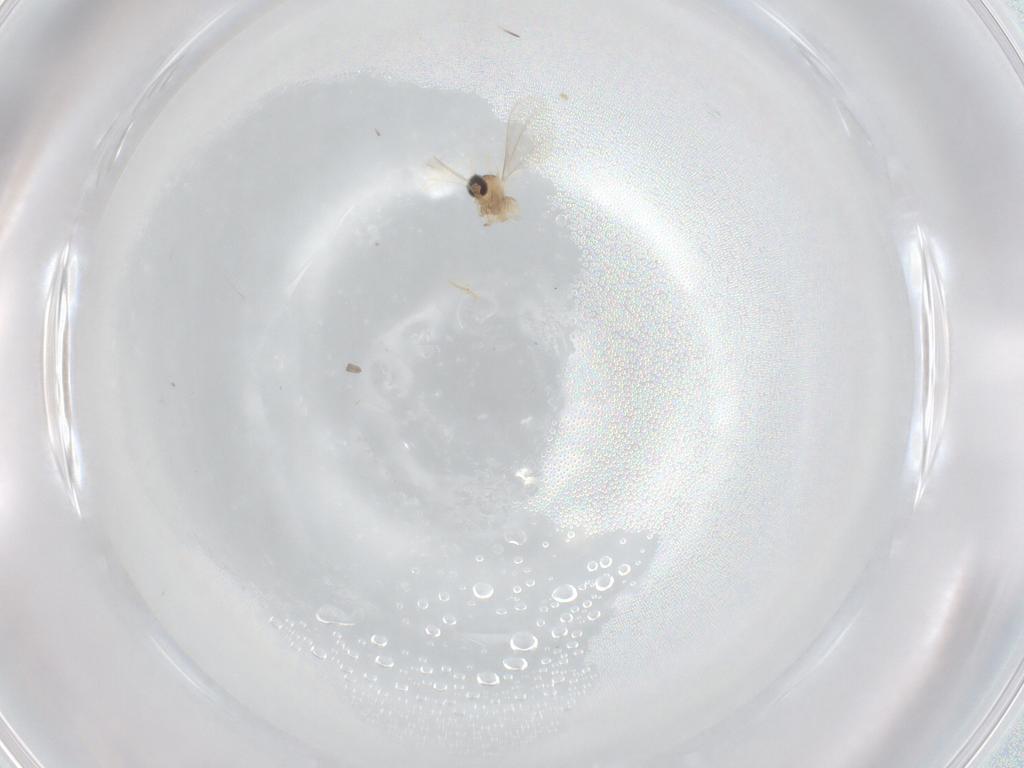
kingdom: Animalia
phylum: Arthropoda
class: Insecta
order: Diptera
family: Cecidomyiidae
